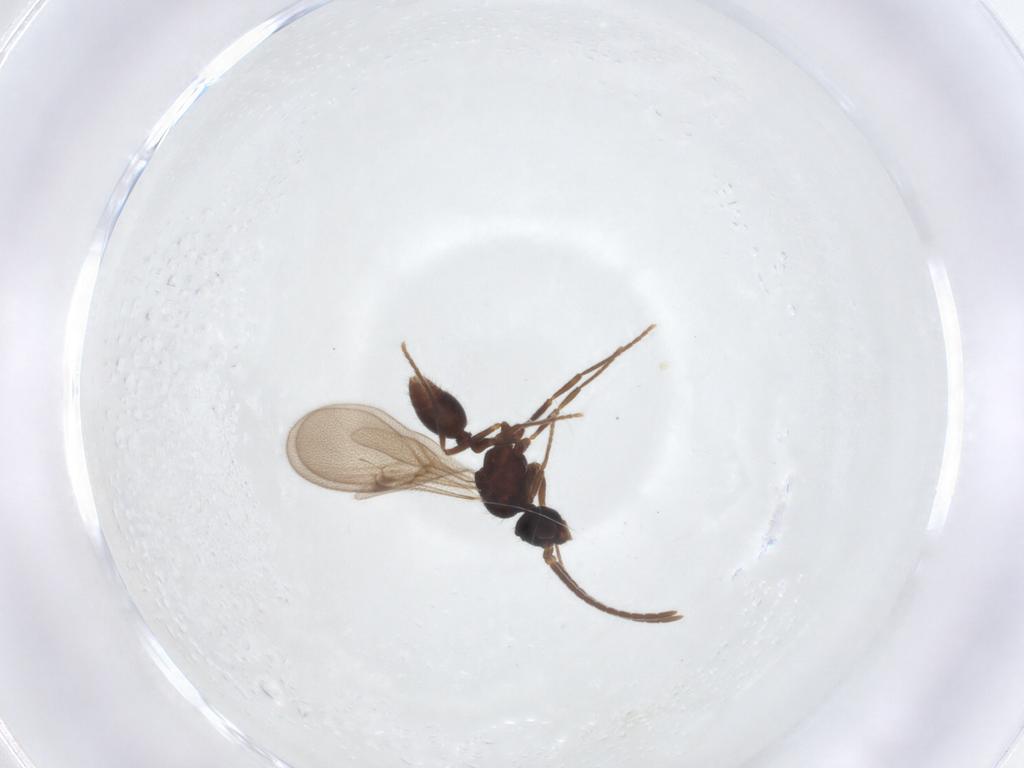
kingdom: Animalia
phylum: Arthropoda
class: Insecta
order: Hymenoptera
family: Formicidae
